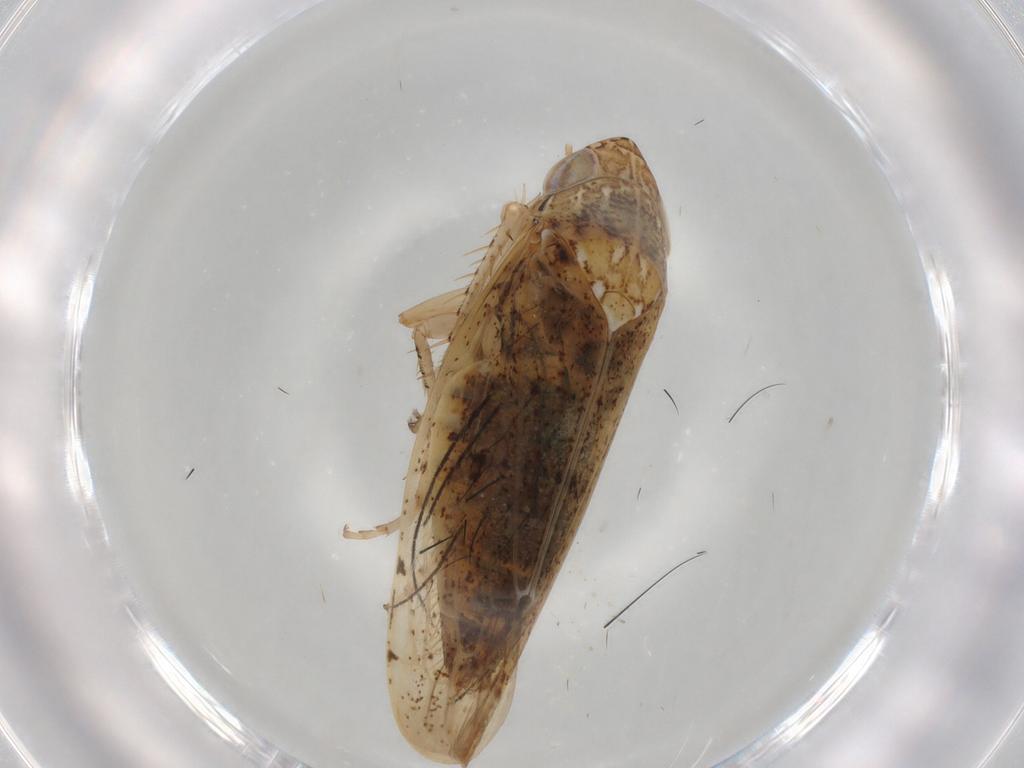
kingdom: Animalia
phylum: Arthropoda
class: Insecta
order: Hemiptera
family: Cicadellidae
